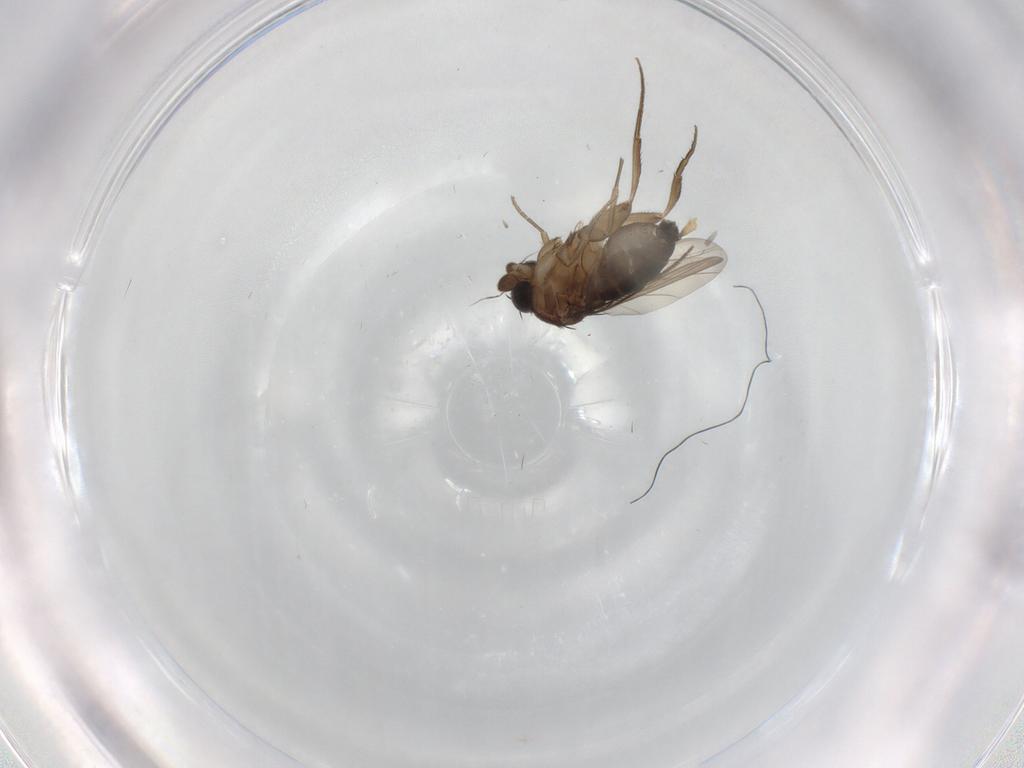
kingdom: Animalia
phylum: Arthropoda
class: Insecta
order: Diptera
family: Phoridae
